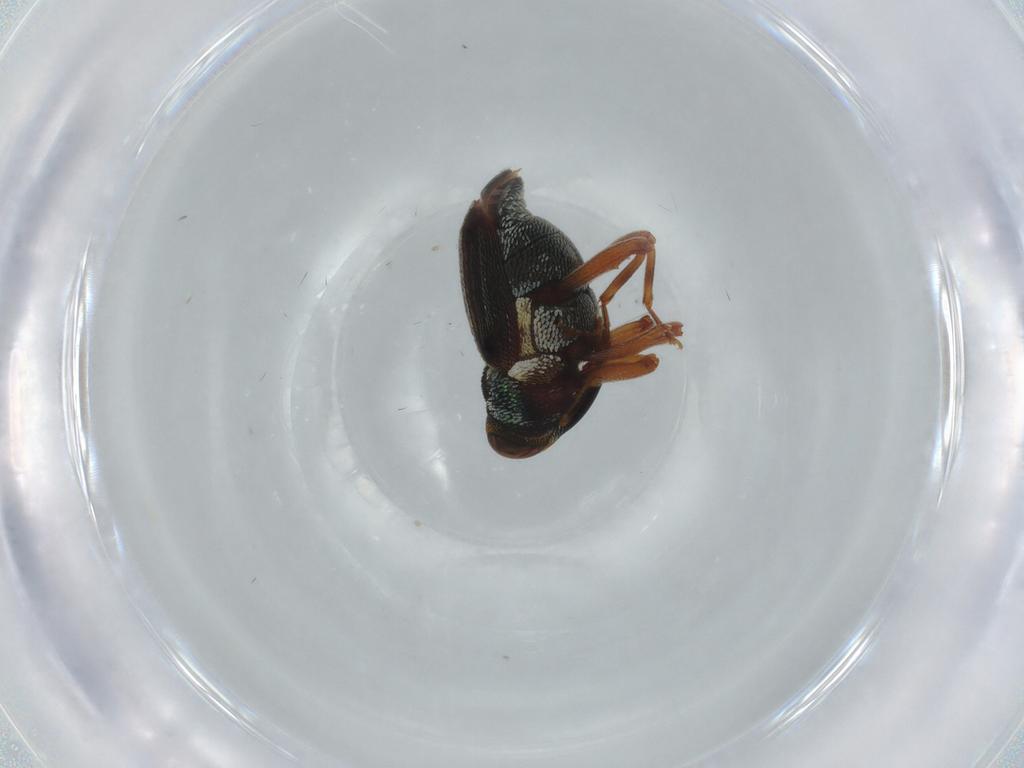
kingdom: Animalia
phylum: Arthropoda
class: Insecta
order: Coleoptera
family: Curculionidae
